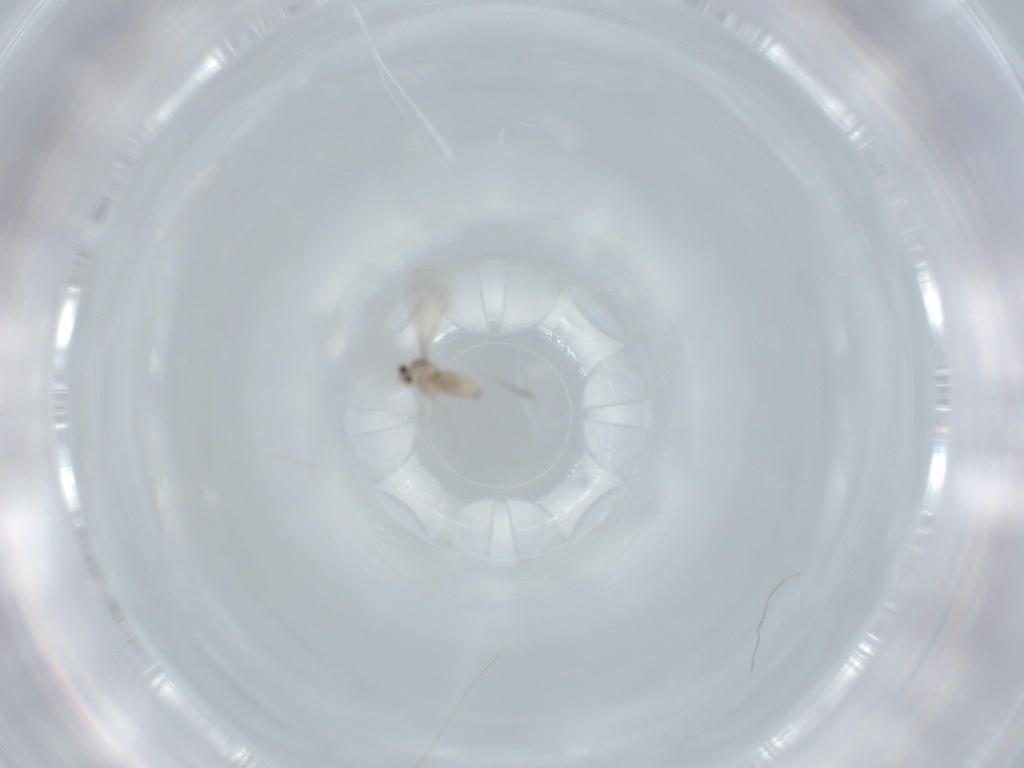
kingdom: Animalia
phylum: Arthropoda
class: Insecta
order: Diptera
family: Cecidomyiidae
